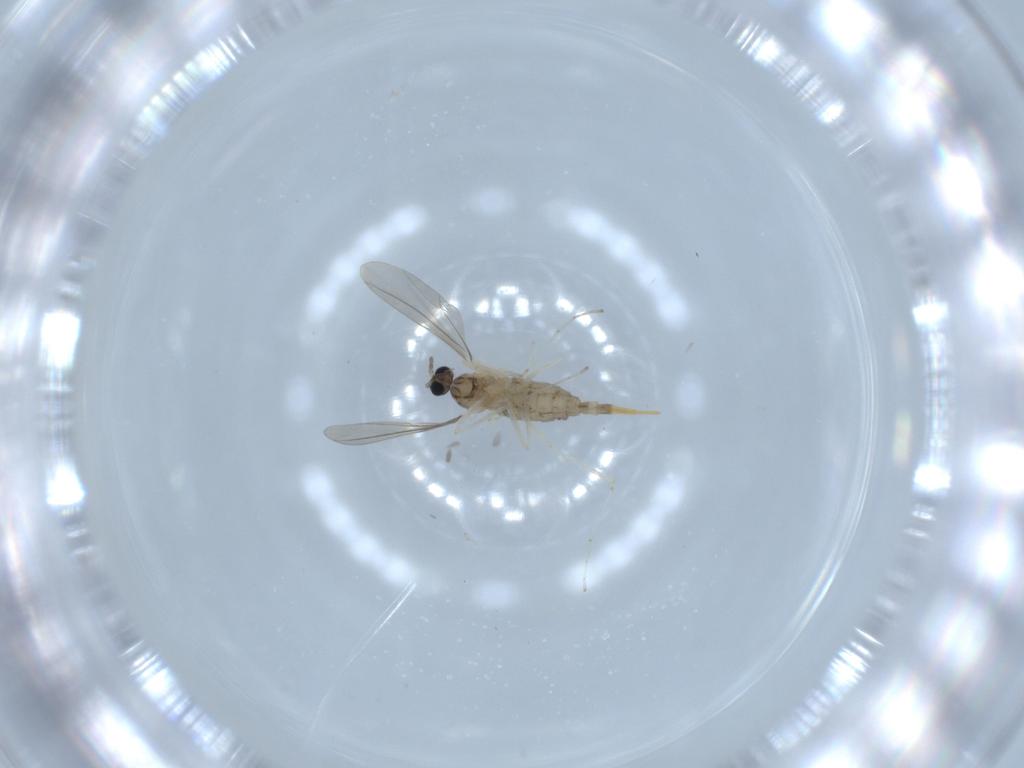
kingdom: Animalia
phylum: Arthropoda
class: Insecta
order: Diptera
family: Cecidomyiidae
